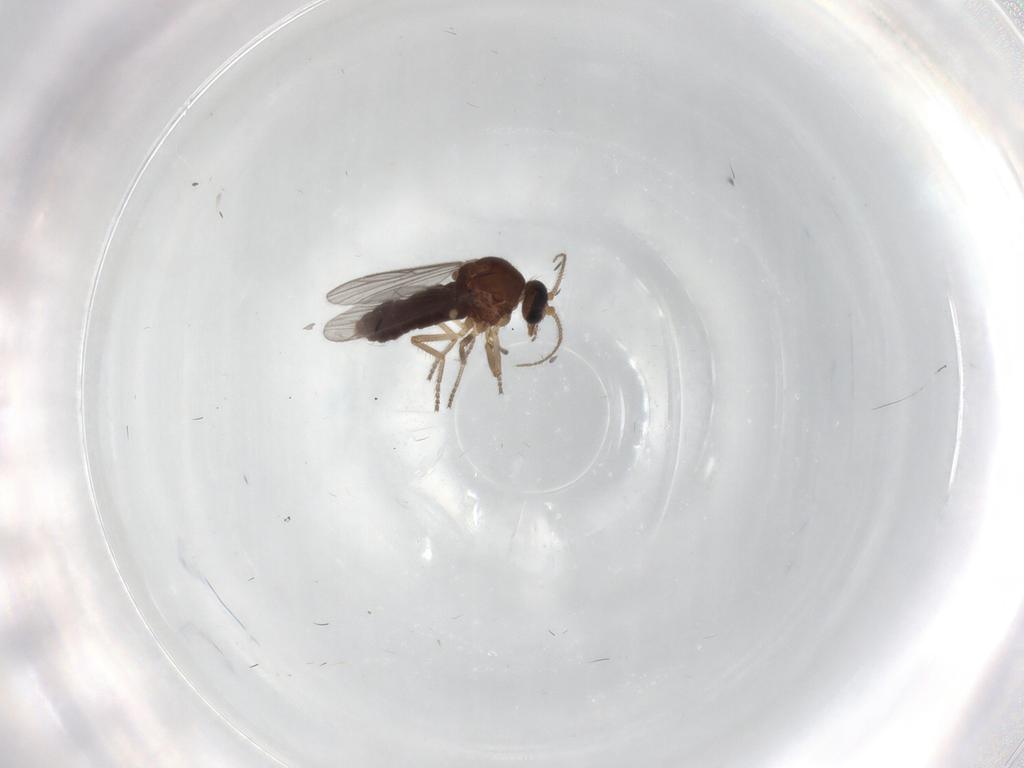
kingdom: Animalia
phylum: Arthropoda
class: Insecta
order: Diptera
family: Ceratopogonidae
